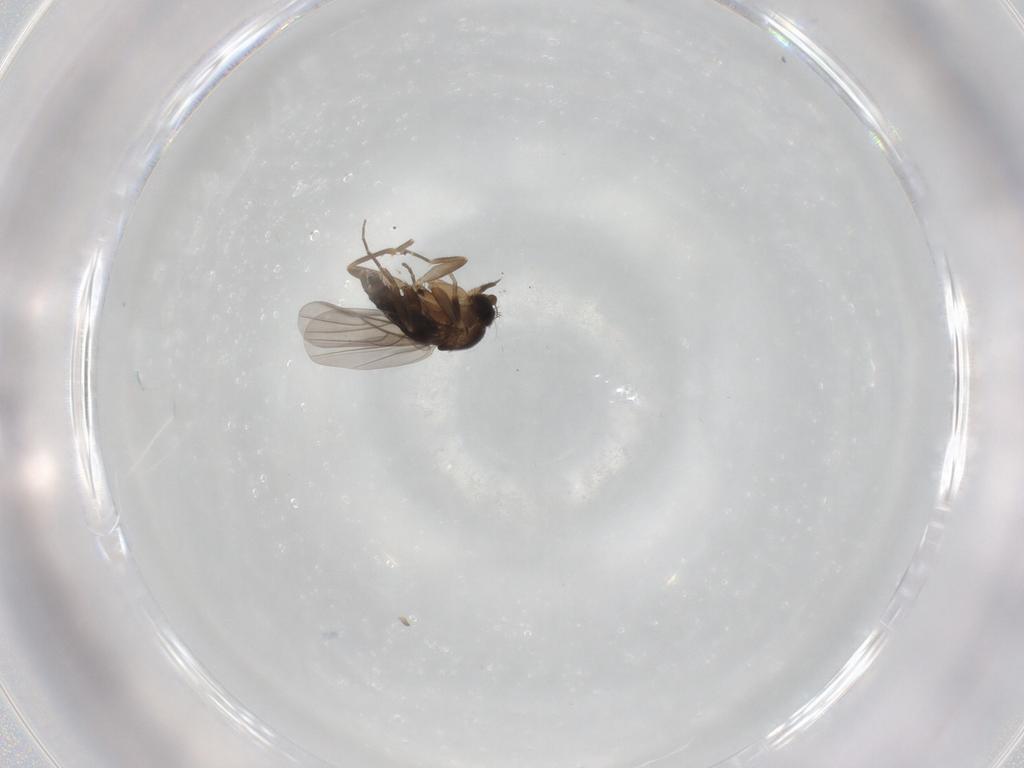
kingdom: Animalia
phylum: Arthropoda
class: Insecta
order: Diptera
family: Phoridae
